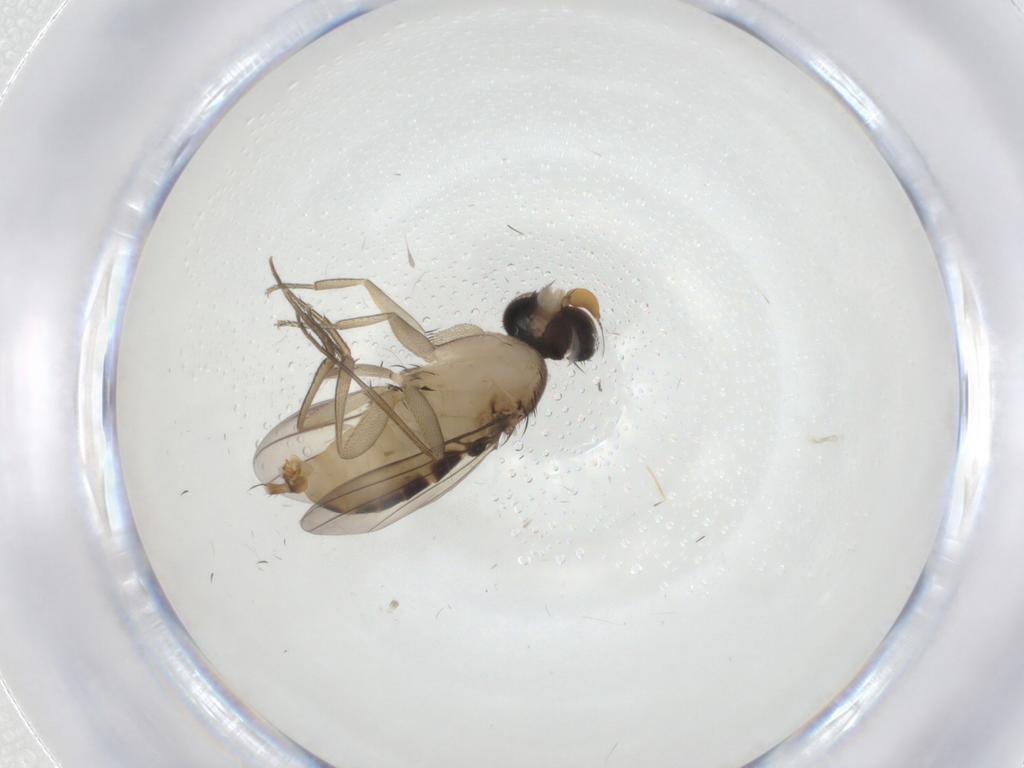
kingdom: Animalia
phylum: Arthropoda
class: Insecta
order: Diptera
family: Phoridae
